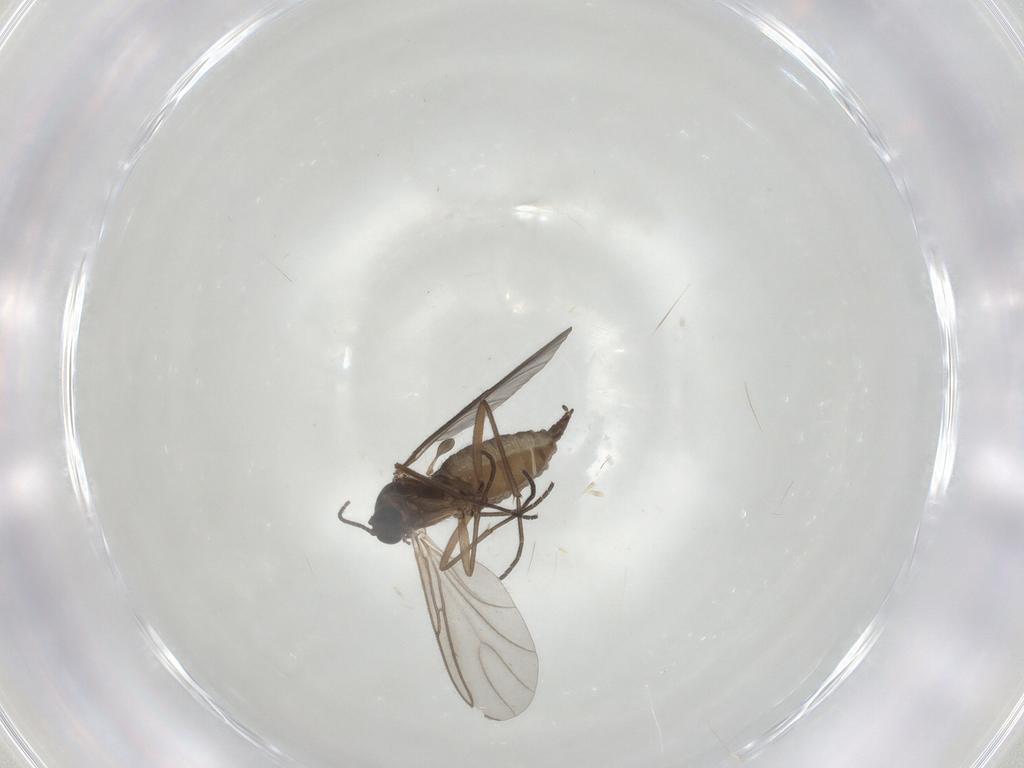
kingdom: Animalia
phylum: Arthropoda
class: Insecta
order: Diptera
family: Sciaridae
